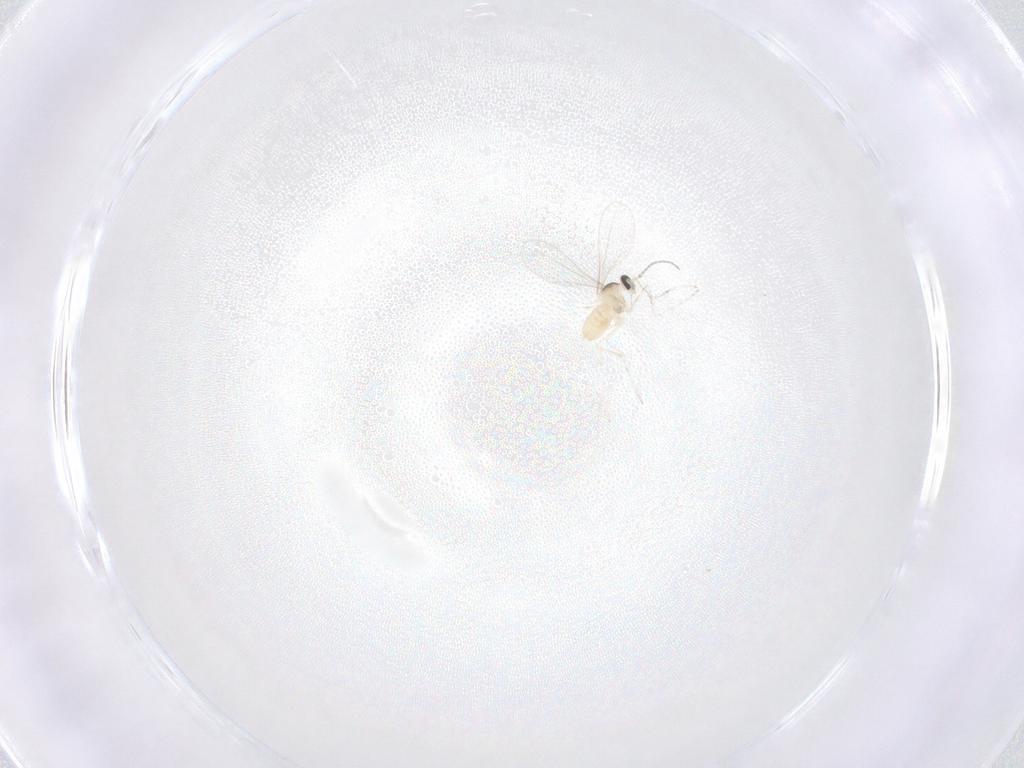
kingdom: Animalia
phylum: Arthropoda
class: Insecta
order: Diptera
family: Cecidomyiidae
